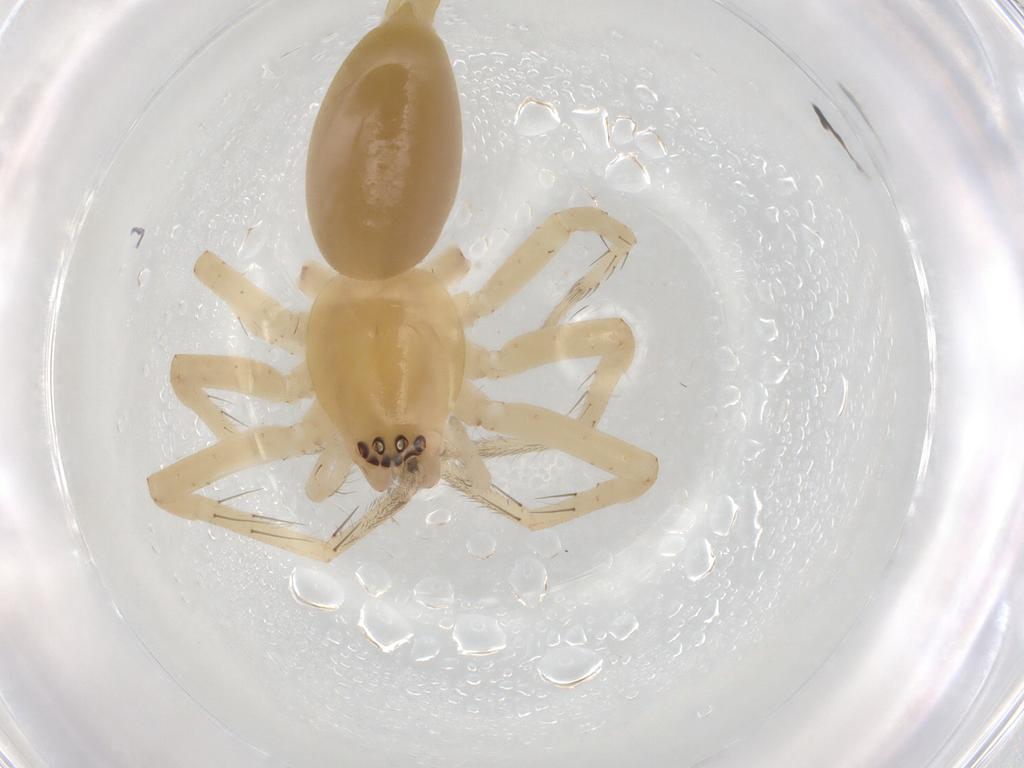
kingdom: Animalia
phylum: Arthropoda
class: Arachnida
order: Araneae
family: Anyphaenidae
